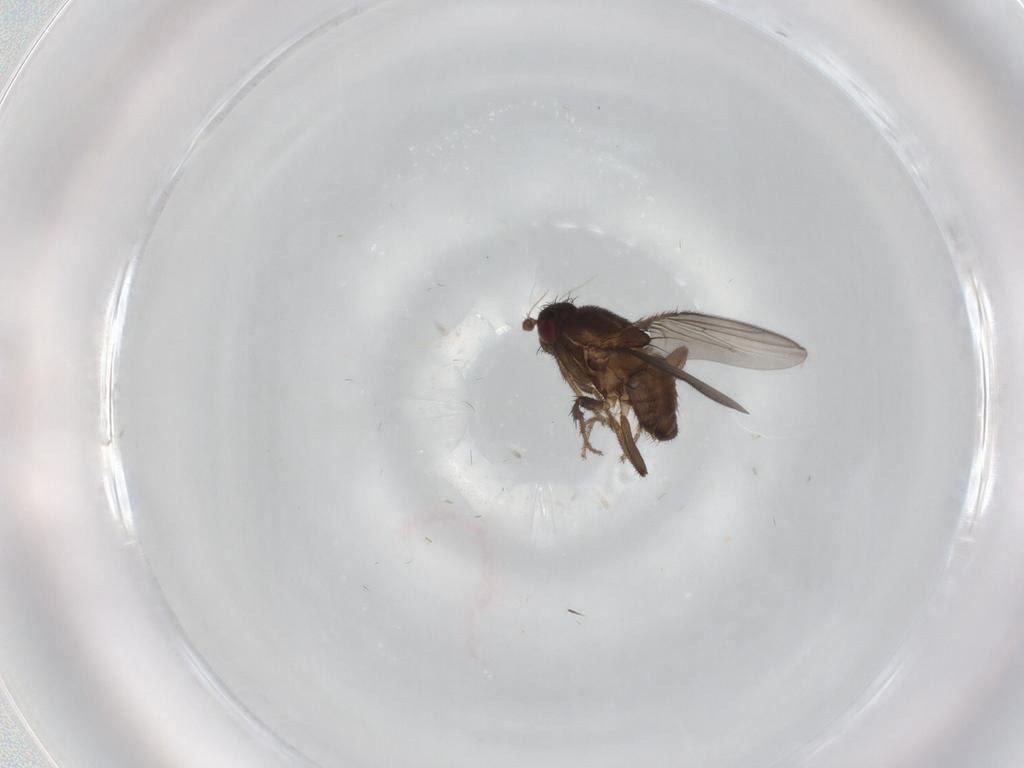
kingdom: Animalia
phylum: Arthropoda
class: Insecta
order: Diptera
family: Sphaeroceridae
